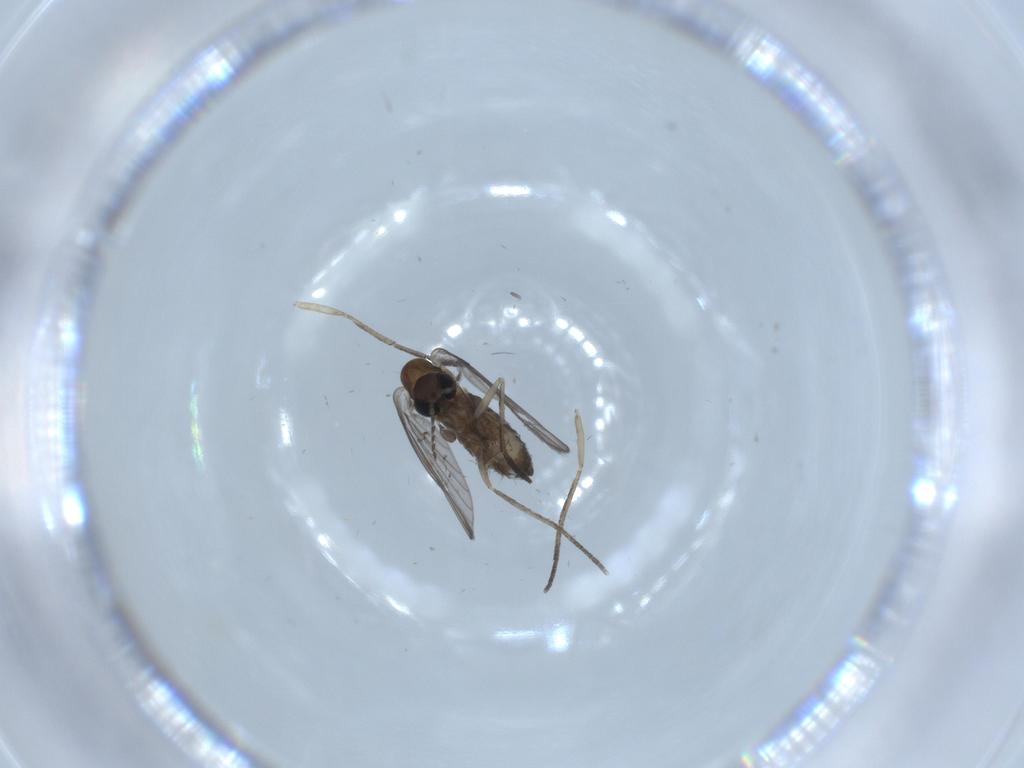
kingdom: Animalia
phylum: Arthropoda
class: Insecta
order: Diptera
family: Psychodidae
